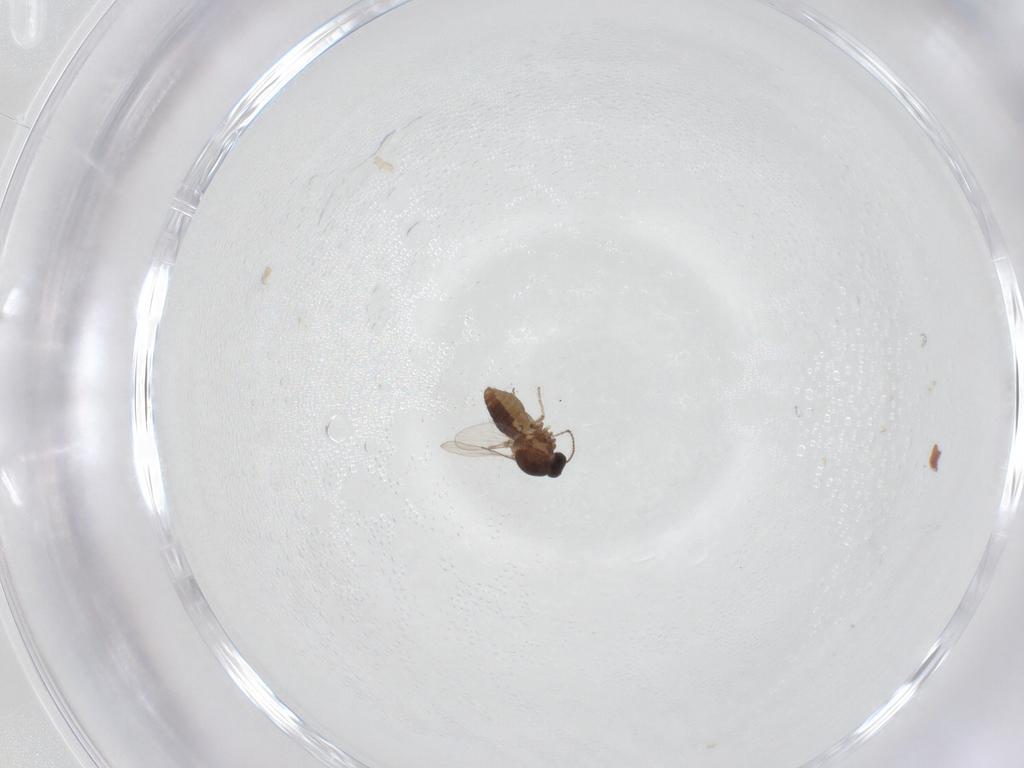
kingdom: Animalia
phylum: Arthropoda
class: Insecta
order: Diptera
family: Ceratopogonidae
